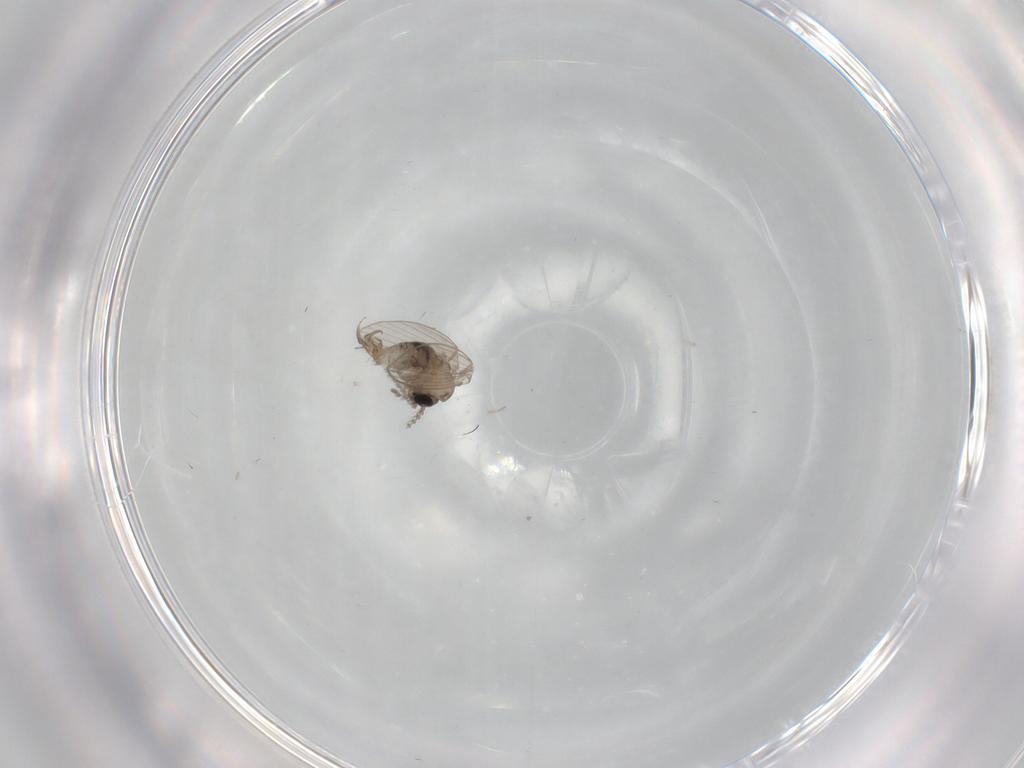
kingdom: Animalia
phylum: Arthropoda
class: Insecta
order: Diptera
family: Psychodidae
